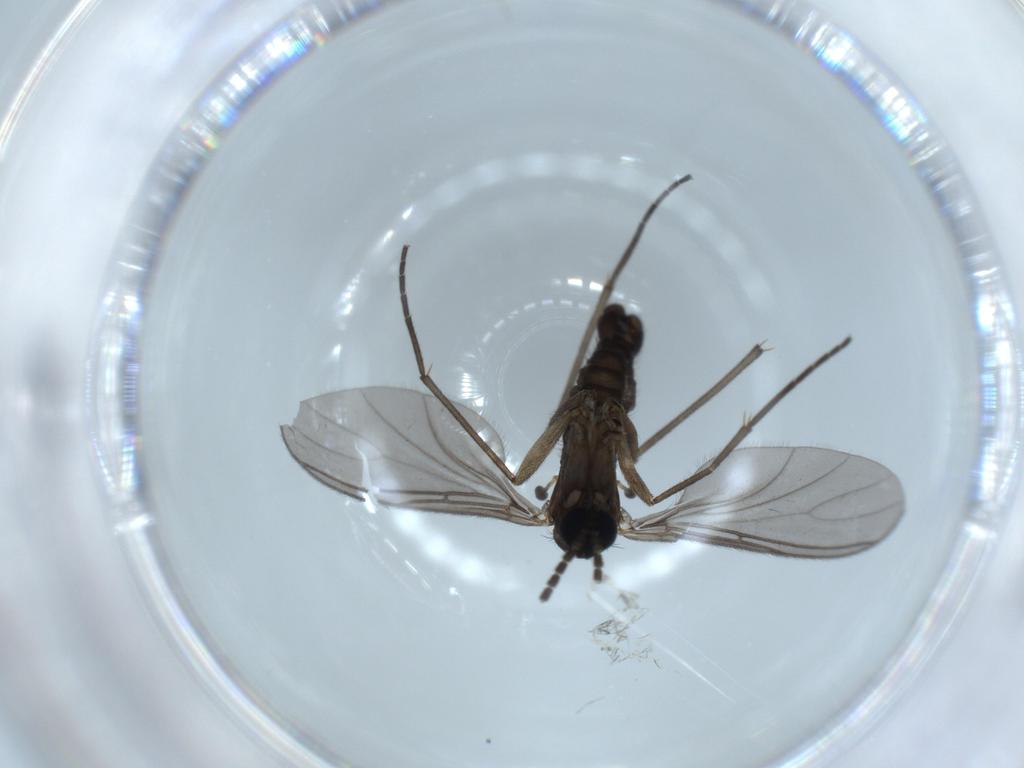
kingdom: Animalia
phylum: Arthropoda
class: Insecta
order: Diptera
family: Sciaridae
